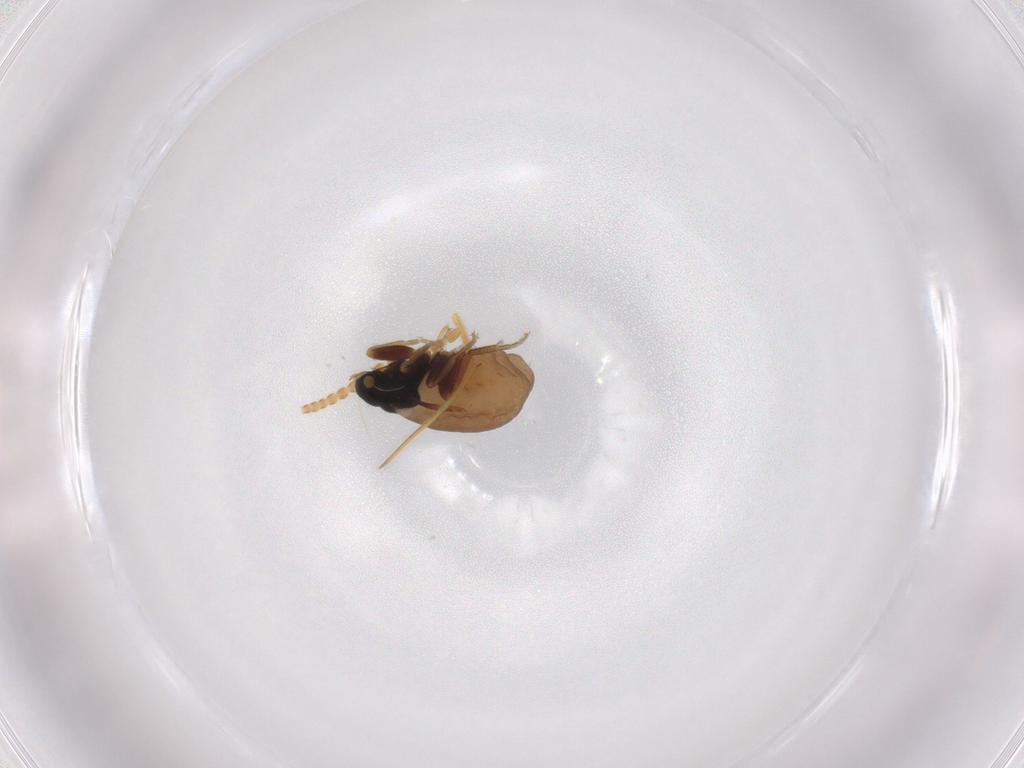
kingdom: Animalia
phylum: Arthropoda
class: Insecta
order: Diptera
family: Phoridae
